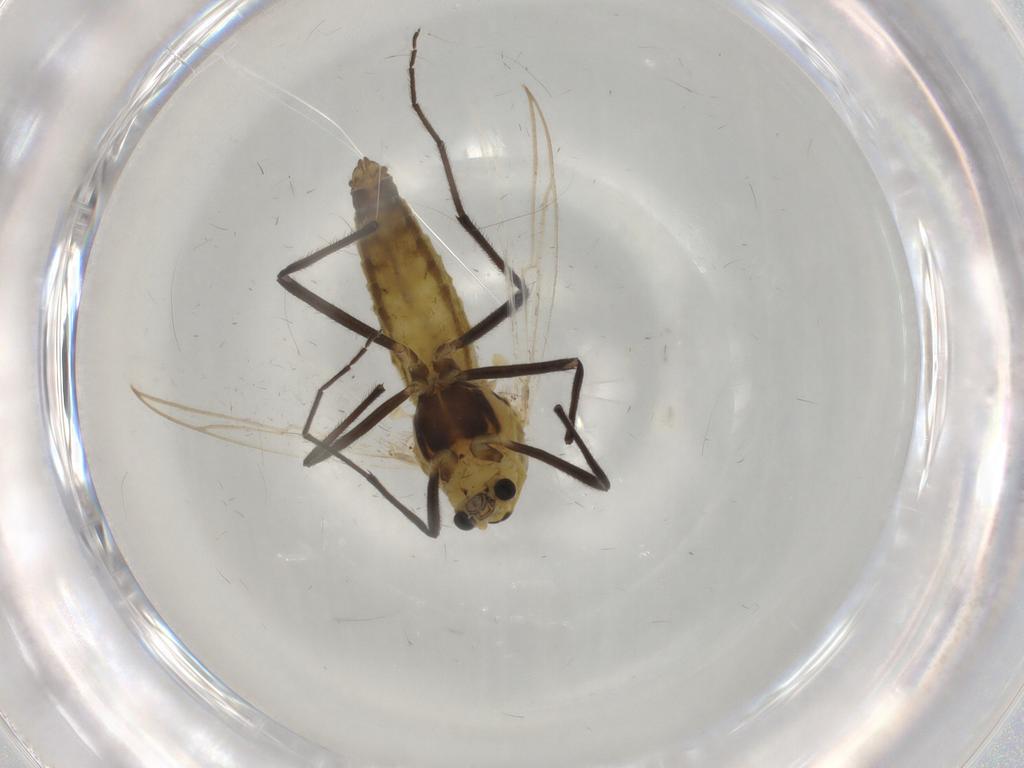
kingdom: Animalia
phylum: Arthropoda
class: Insecta
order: Diptera
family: Chironomidae
